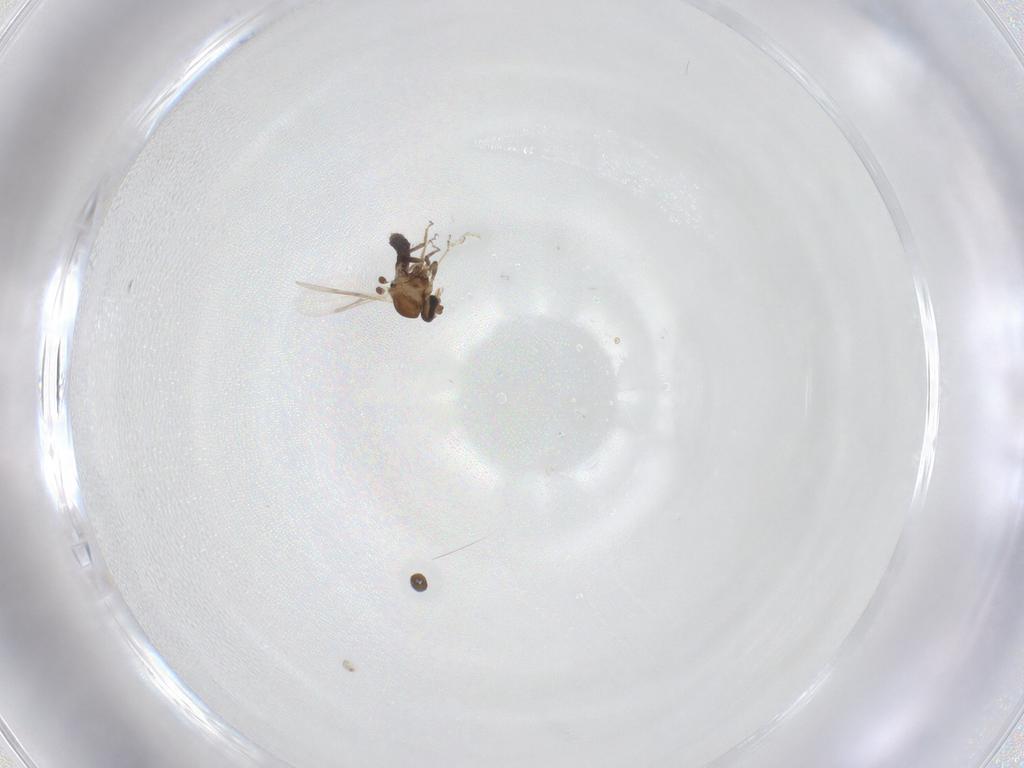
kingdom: Animalia
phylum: Arthropoda
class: Insecta
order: Diptera
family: Ceratopogonidae
